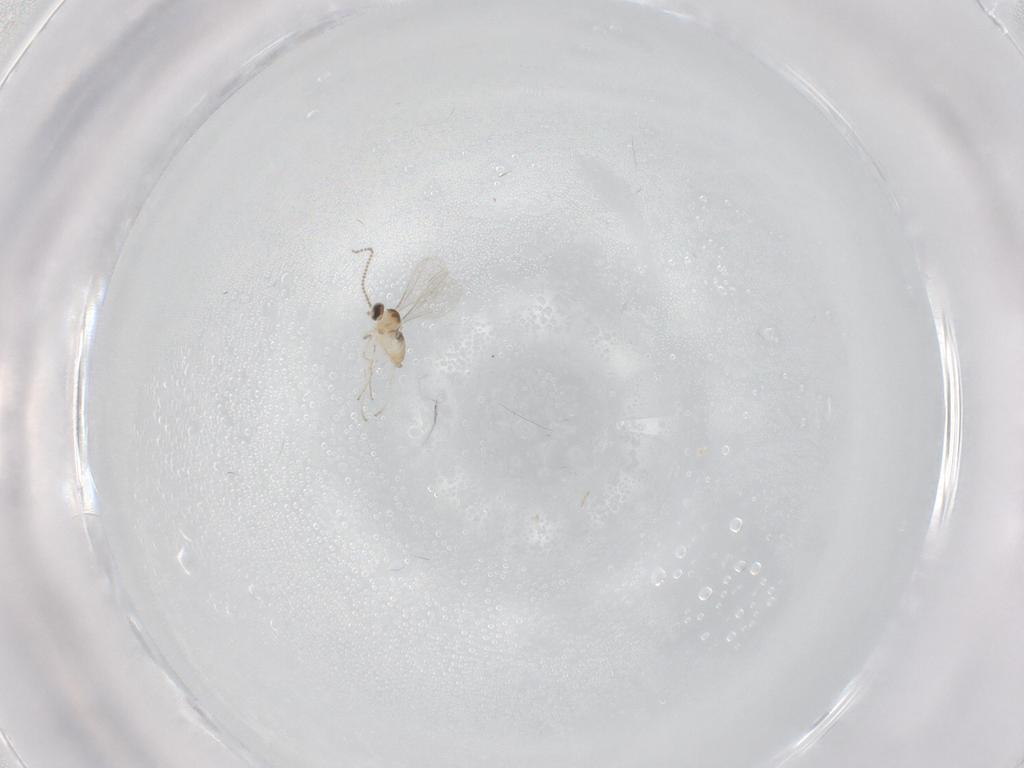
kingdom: Animalia
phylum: Arthropoda
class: Insecta
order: Diptera
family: Cecidomyiidae
